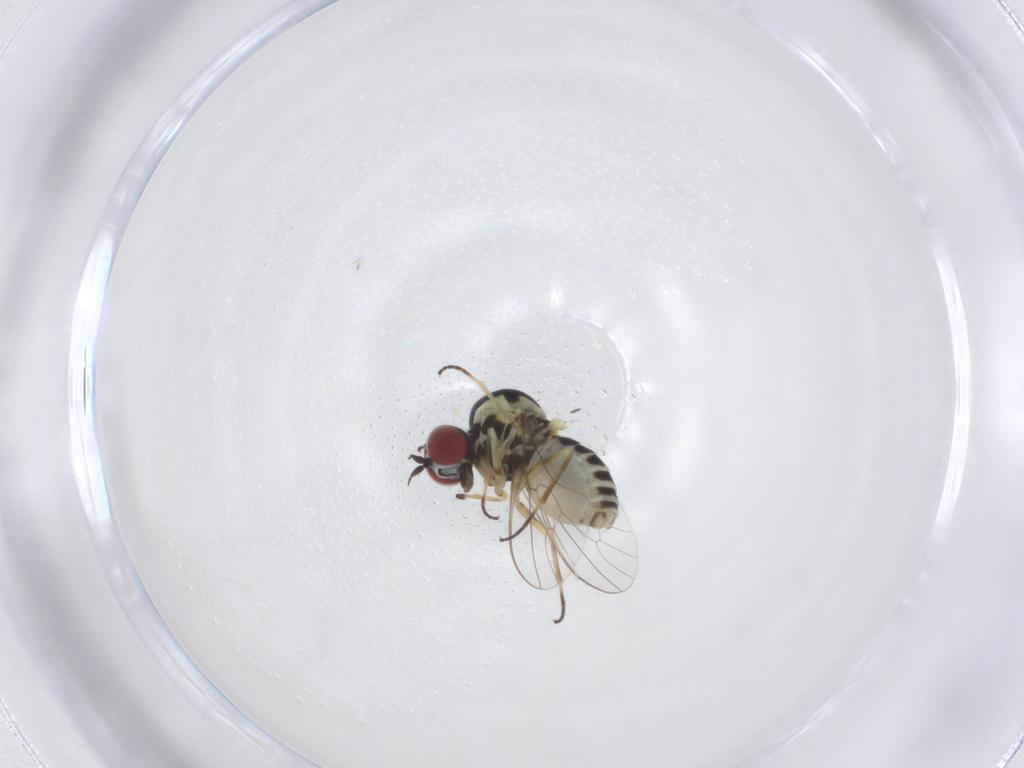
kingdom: Animalia
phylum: Arthropoda
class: Insecta
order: Diptera
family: Bombyliidae
